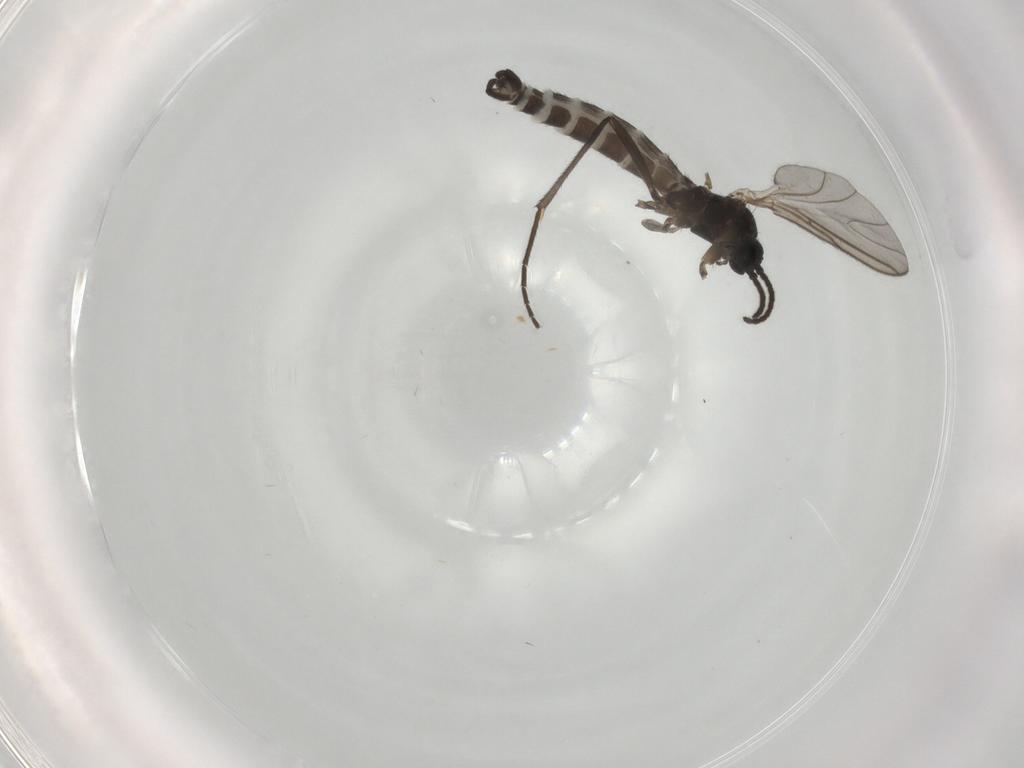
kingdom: Animalia
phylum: Arthropoda
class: Insecta
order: Diptera
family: Sciaridae
